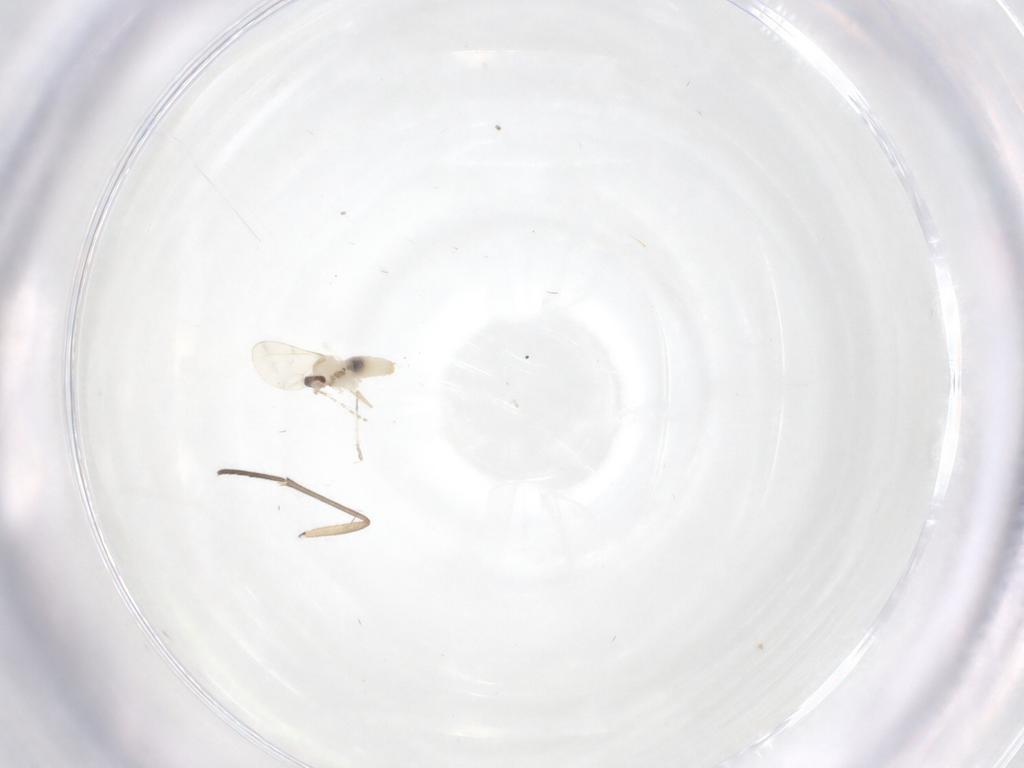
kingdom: Animalia
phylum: Arthropoda
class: Insecta
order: Diptera
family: Cecidomyiidae
